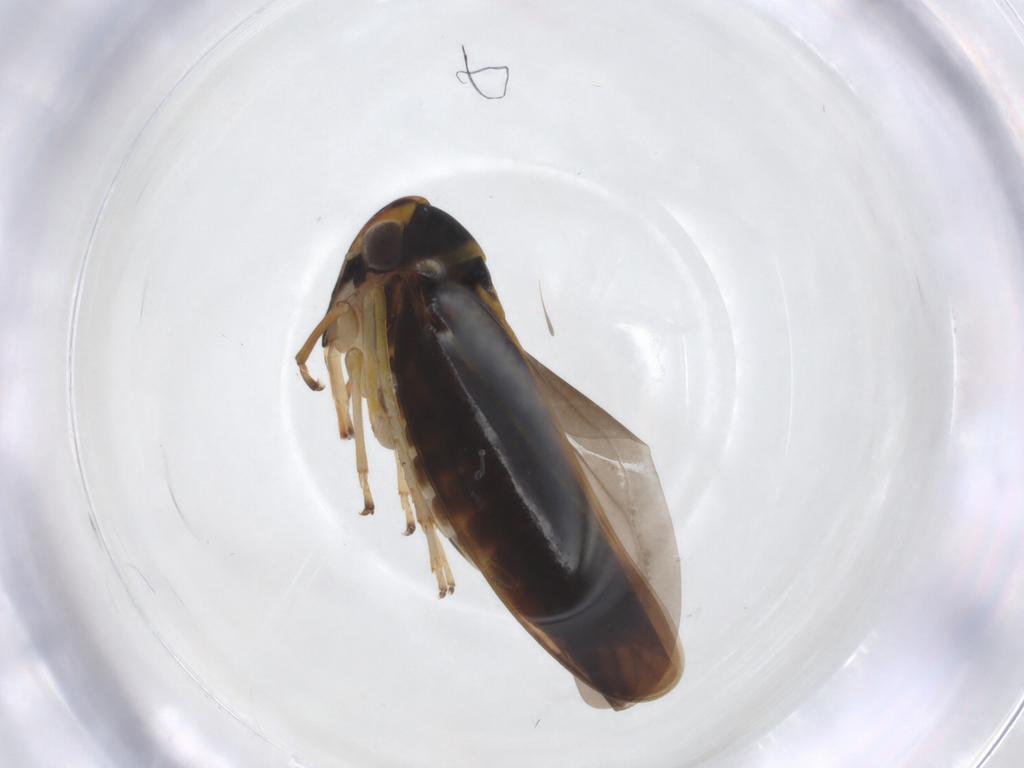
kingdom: Animalia
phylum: Arthropoda
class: Insecta
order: Hemiptera
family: Cicadellidae
